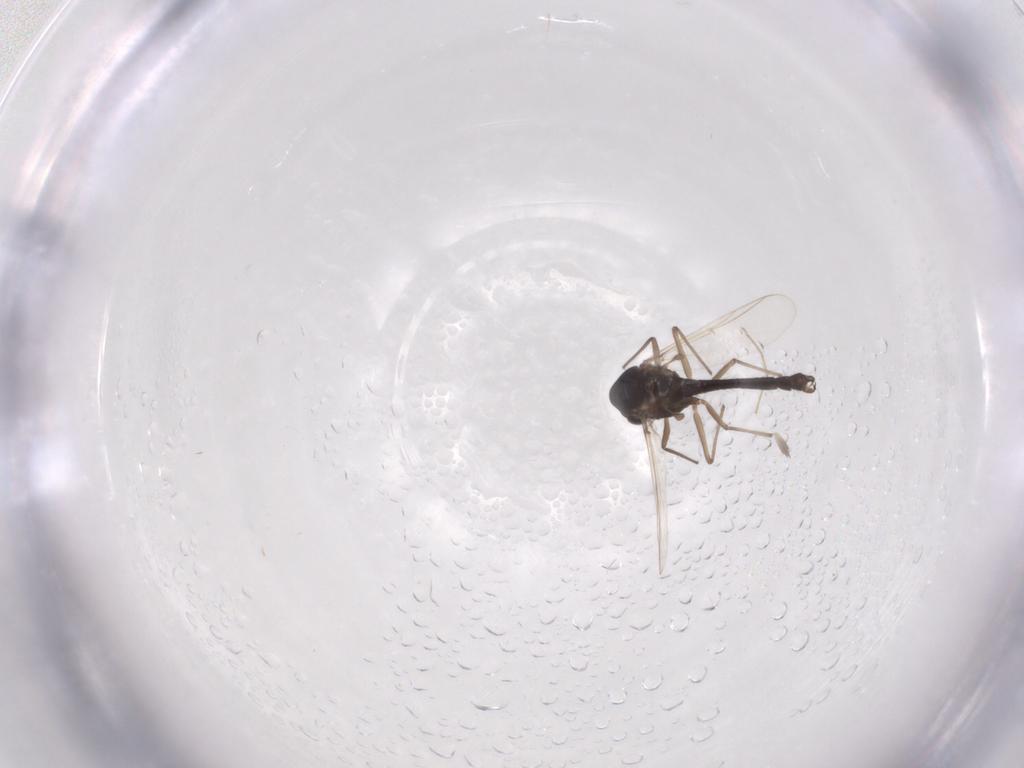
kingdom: Animalia
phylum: Arthropoda
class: Insecta
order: Diptera
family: Chironomidae
